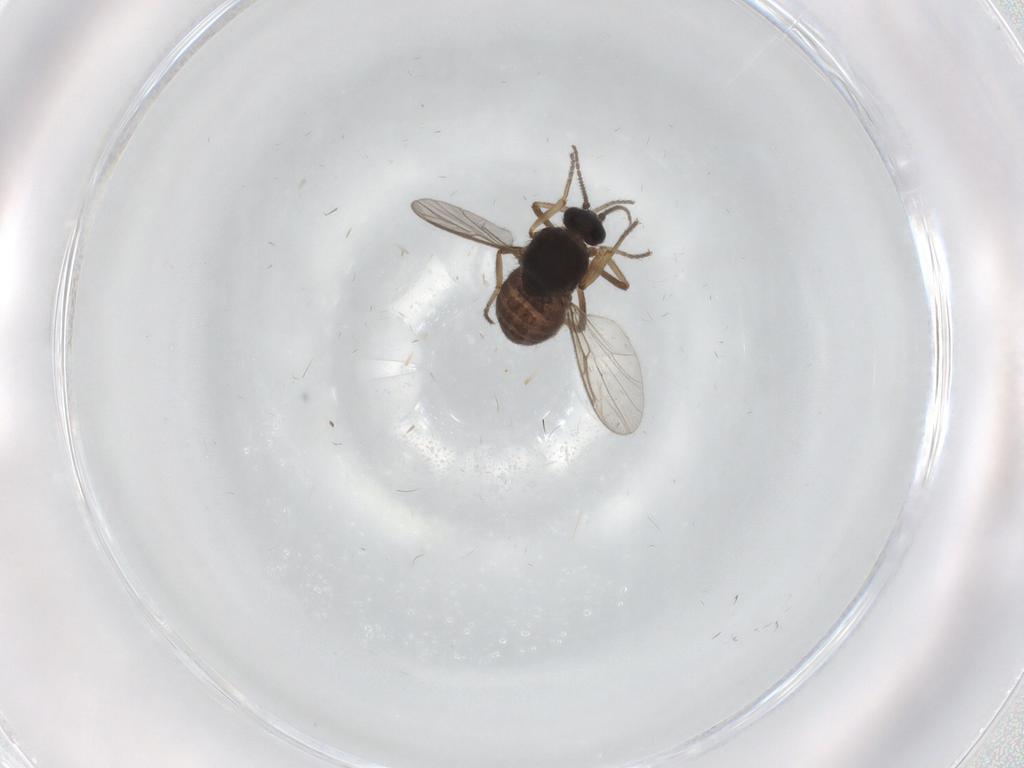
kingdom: Animalia
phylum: Arthropoda
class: Insecta
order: Diptera
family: Ceratopogonidae
